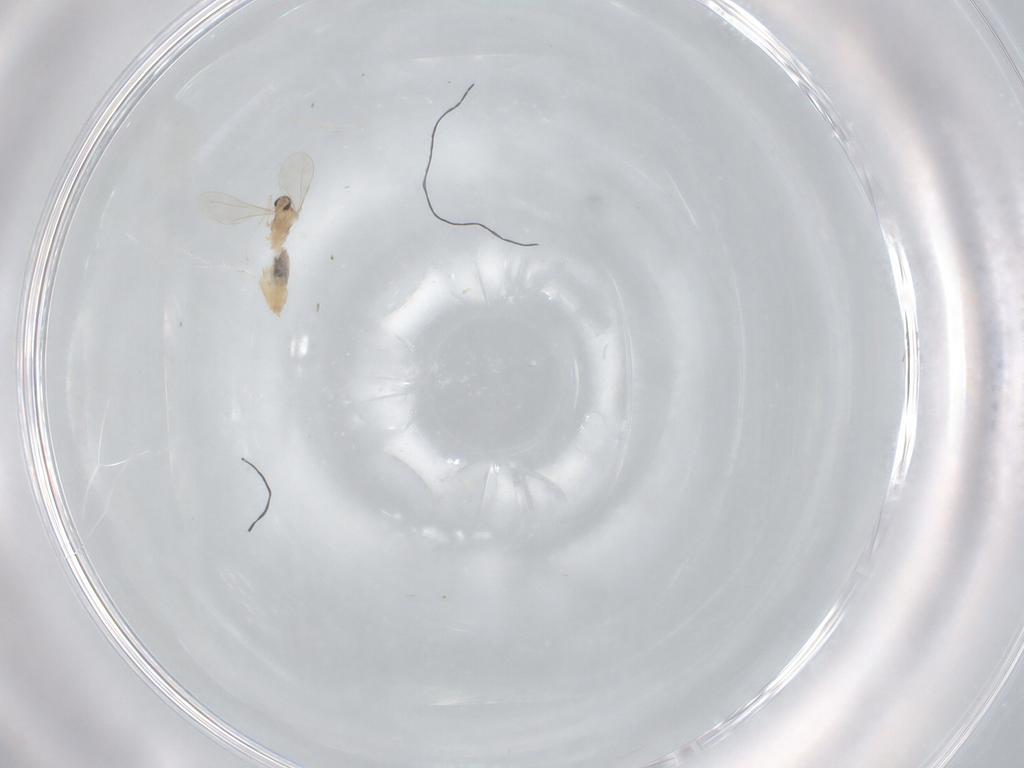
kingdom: Animalia
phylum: Arthropoda
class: Insecta
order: Diptera
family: Cecidomyiidae
